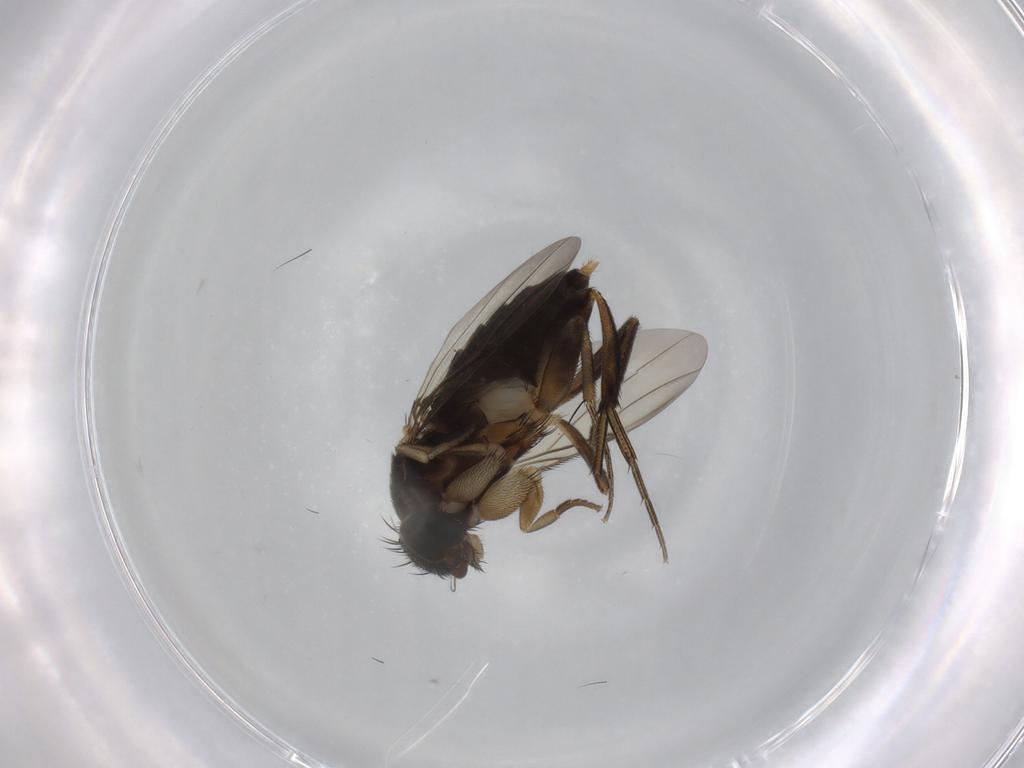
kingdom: Animalia
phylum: Arthropoda
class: Insecta
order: Diptera
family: Phoridae
